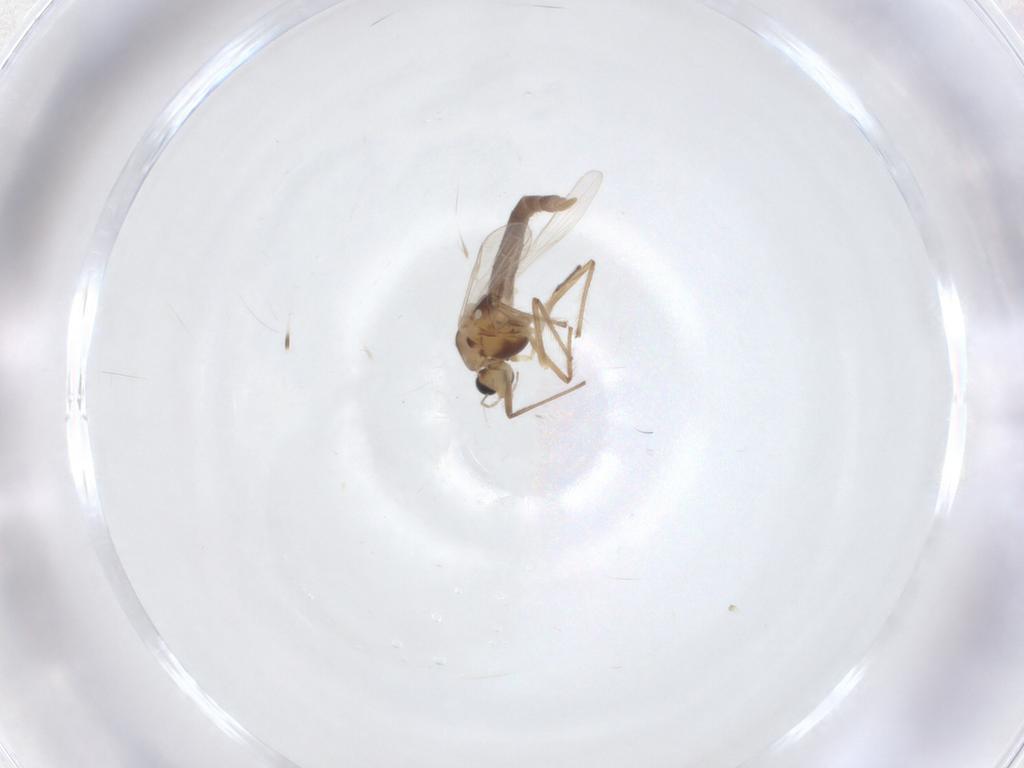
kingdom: Animalia
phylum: Arthropoda
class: Insecta
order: Diptera
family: Chironomidae
